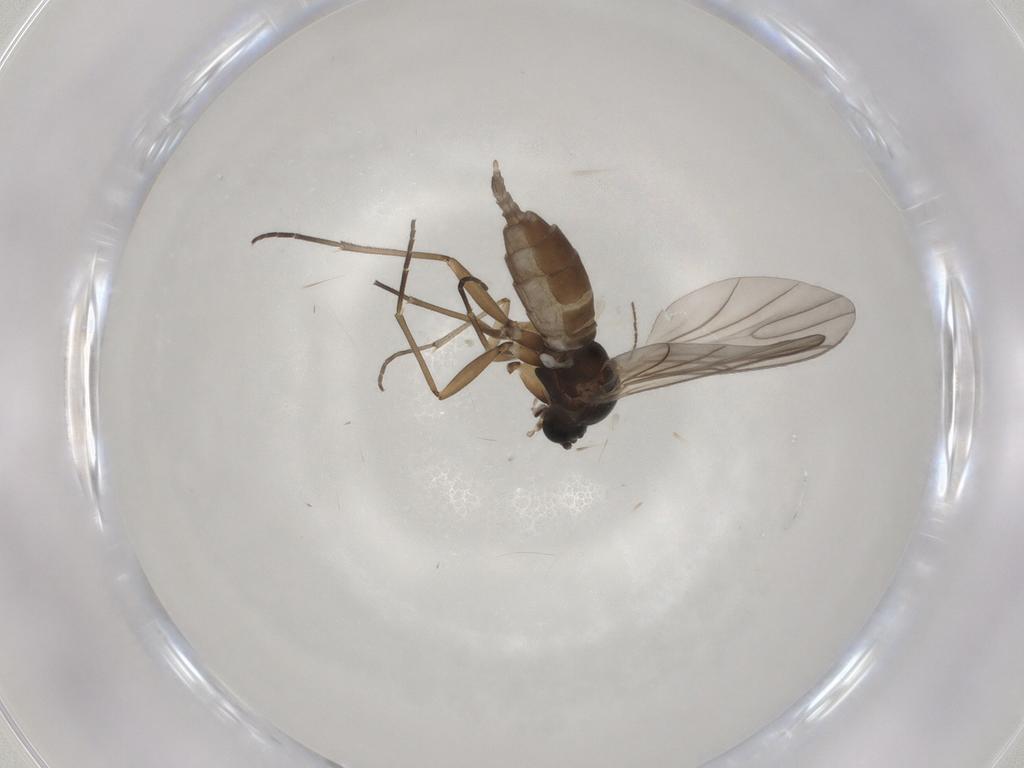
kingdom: Animalia
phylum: Arthropoda
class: Insecta
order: Diptera
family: Sciaridae
